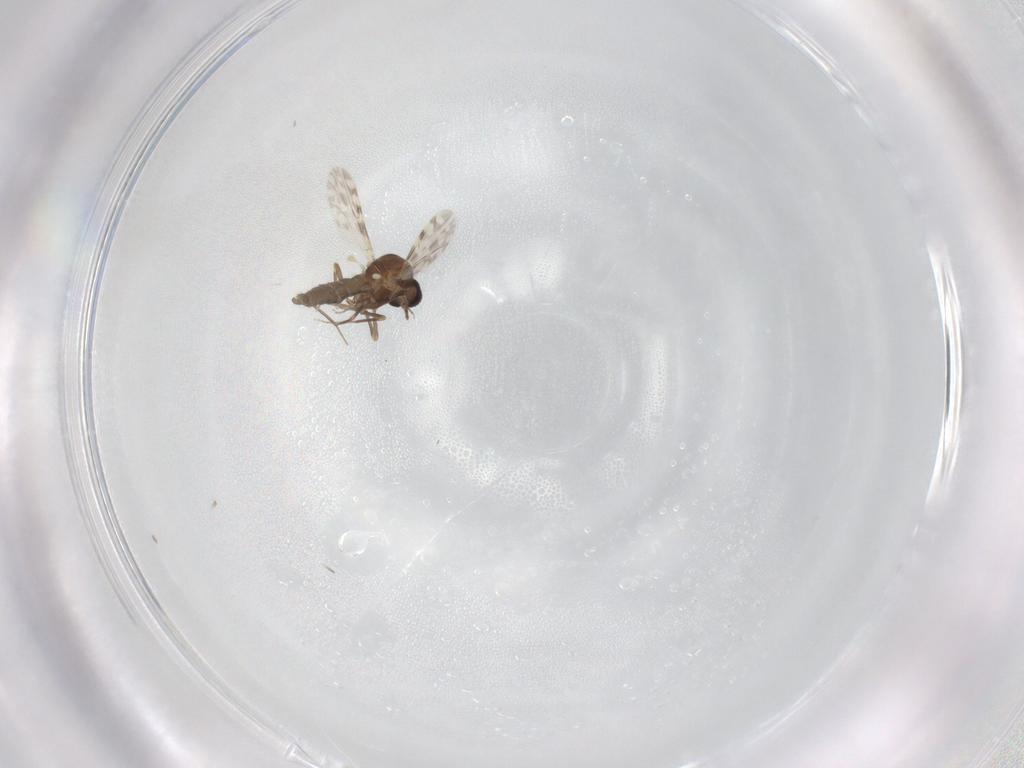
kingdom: Animalia
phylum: Arthropoda
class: Insecta
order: Diptera
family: Ceratopogonidae
